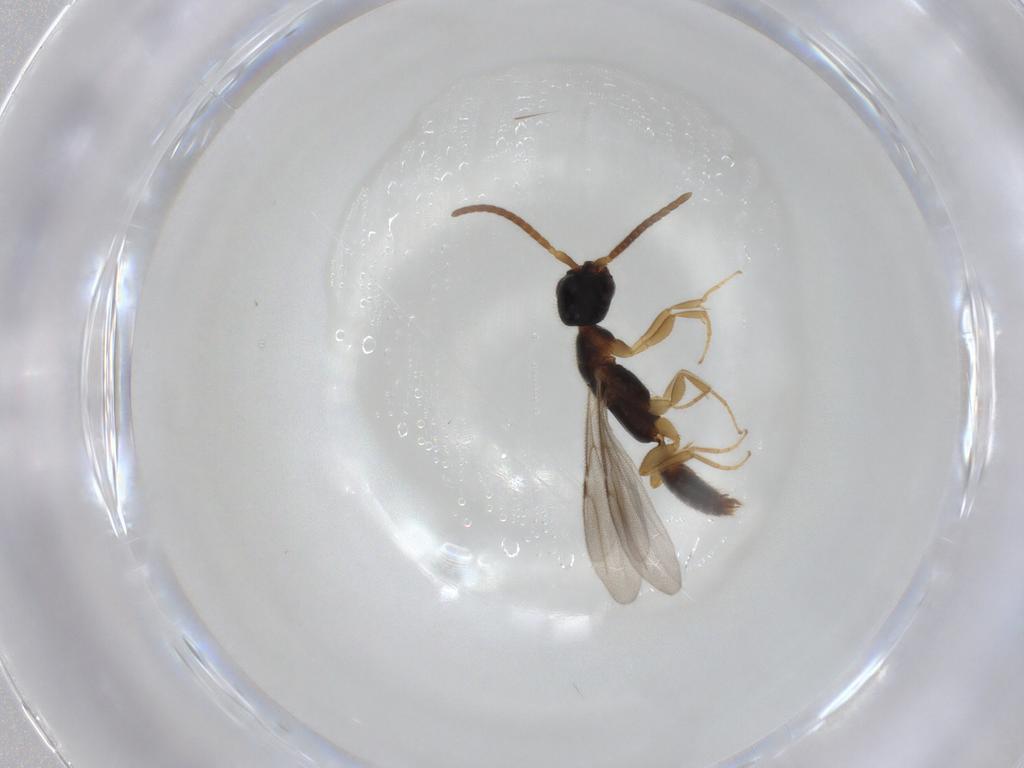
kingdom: Animalia
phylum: Arthropoda
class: Insecta
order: Hymenoptera
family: Bethylidae
